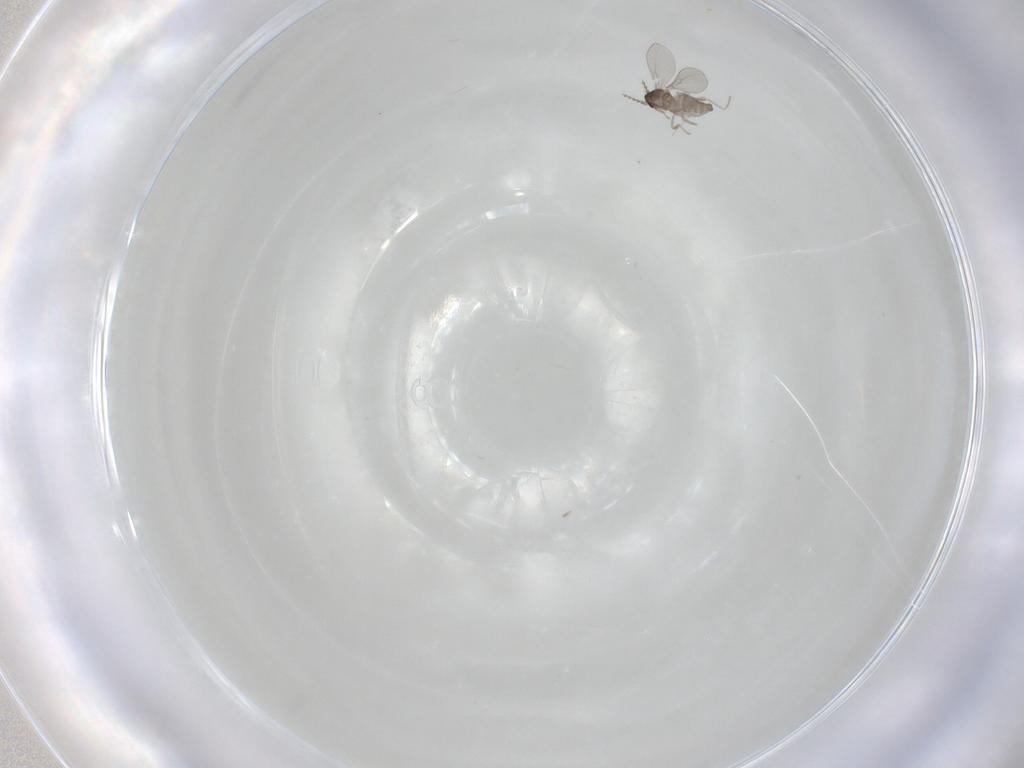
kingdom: Animalia
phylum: Arthropoda
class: Insecta
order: Diptera
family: Cecidomyiidae
